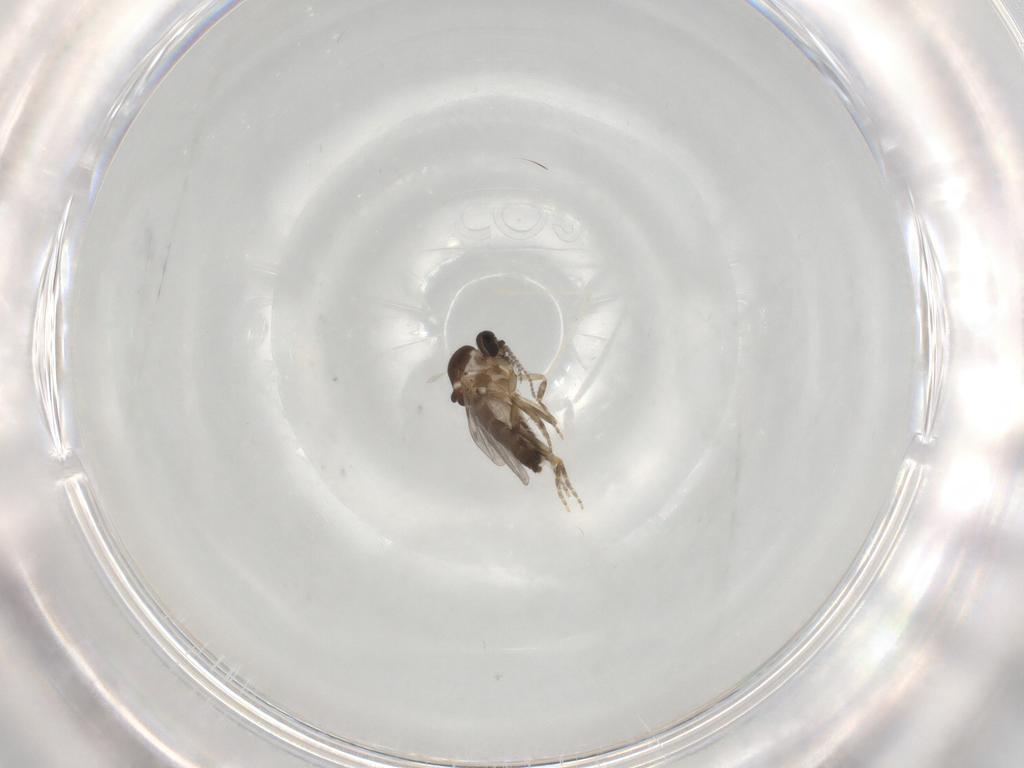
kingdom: Animalia
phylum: Arthropoda
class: Insecta
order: Diptera
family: Ceratopogonidae
